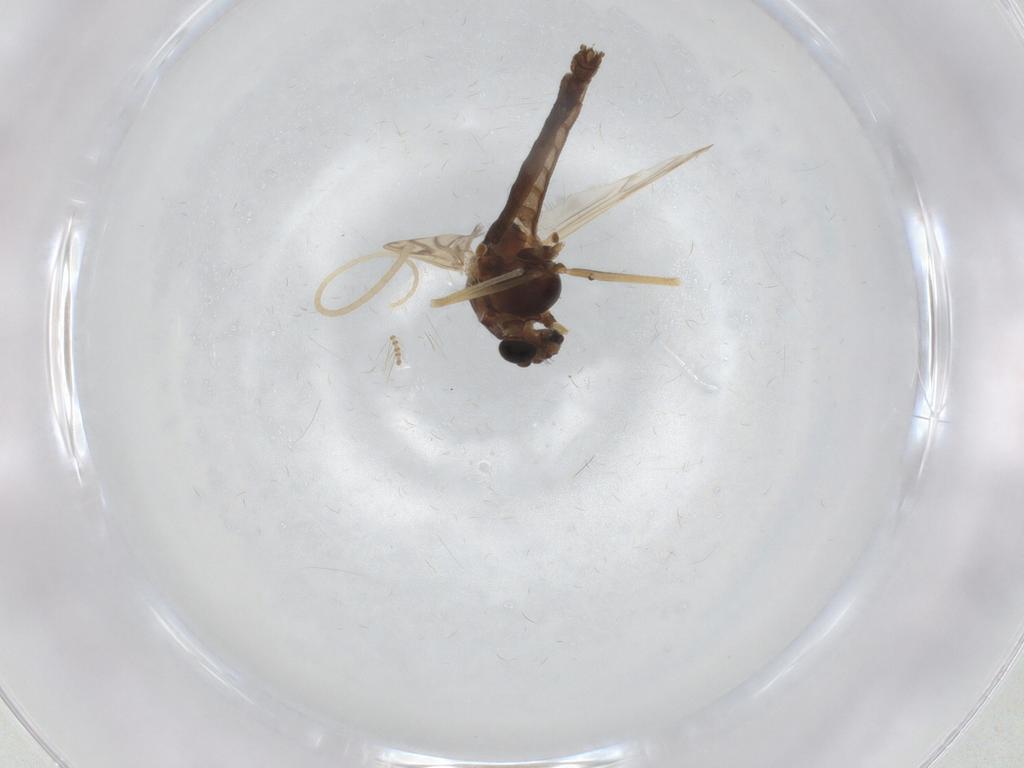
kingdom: Animalia
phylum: Arthropoda
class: Insecta
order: Diptera
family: Chironomidae
